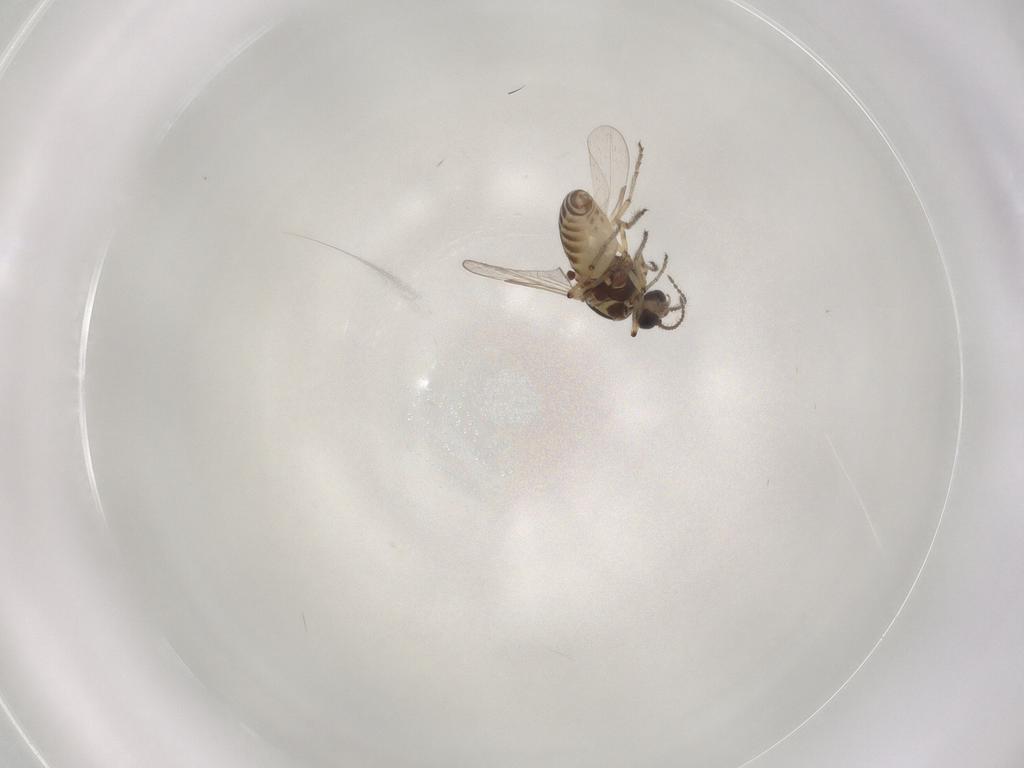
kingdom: Animalia
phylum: Arthropoda
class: Insecta
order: Diptera
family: Ceratopogonidae
